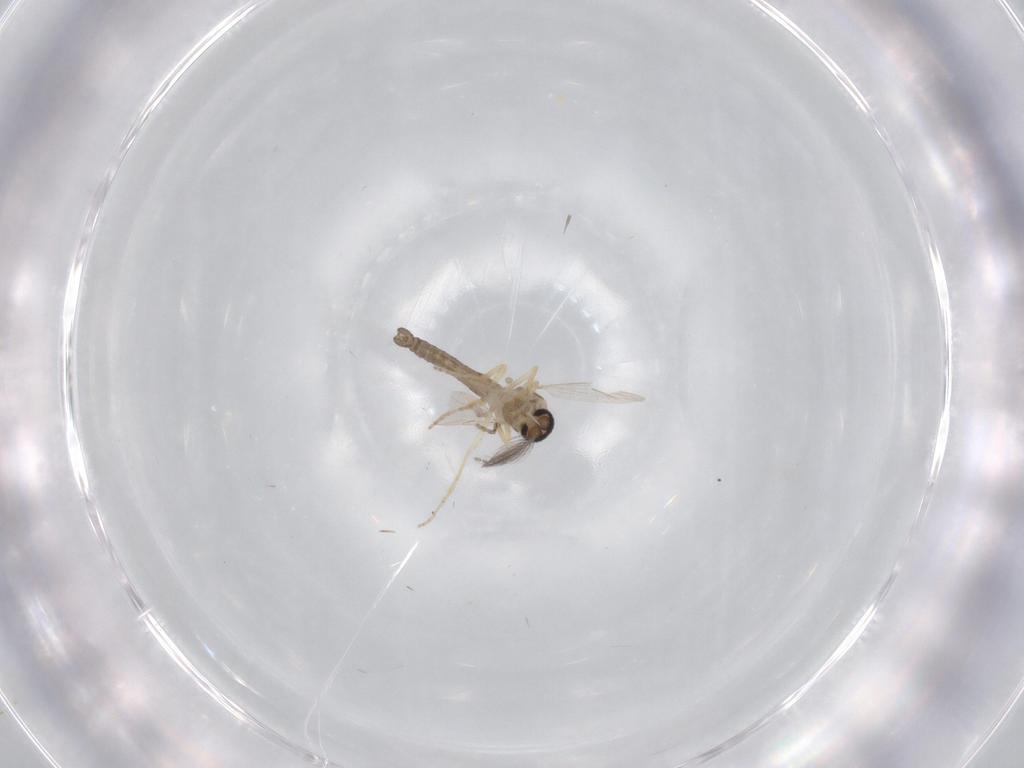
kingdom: Animalia
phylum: Arthropoda
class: Insecta
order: Diptera
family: Ceratopogonidae
